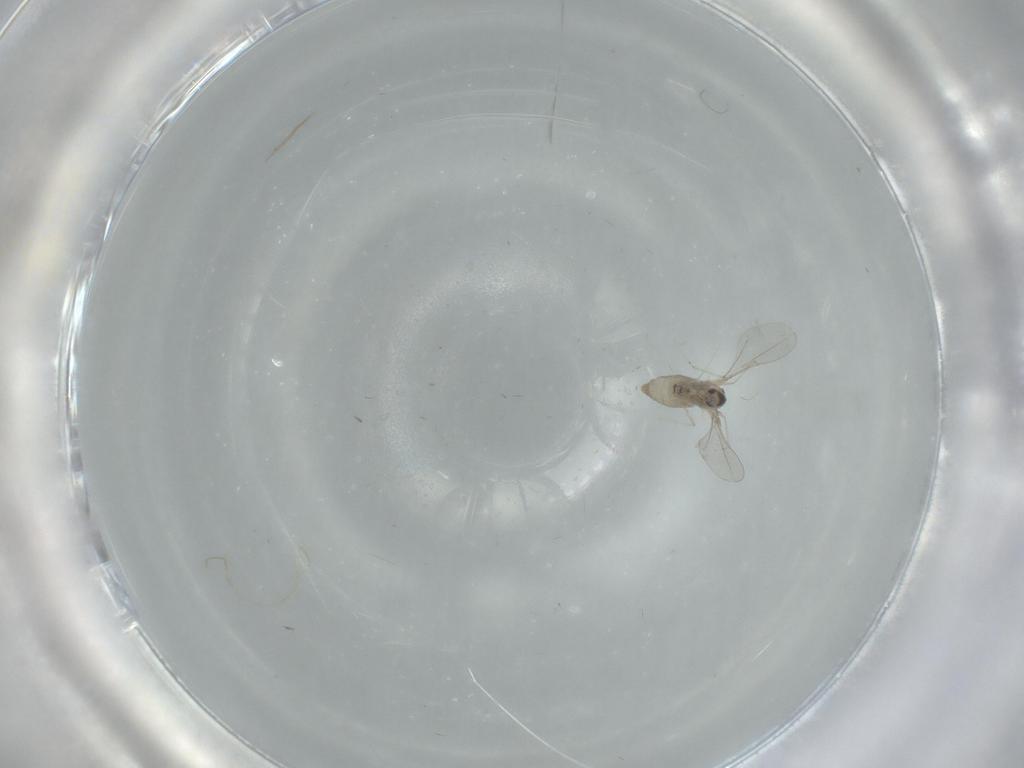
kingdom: Animalia
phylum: Arthropoda
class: Insecta
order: Diptera
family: Cecidomyiidae
